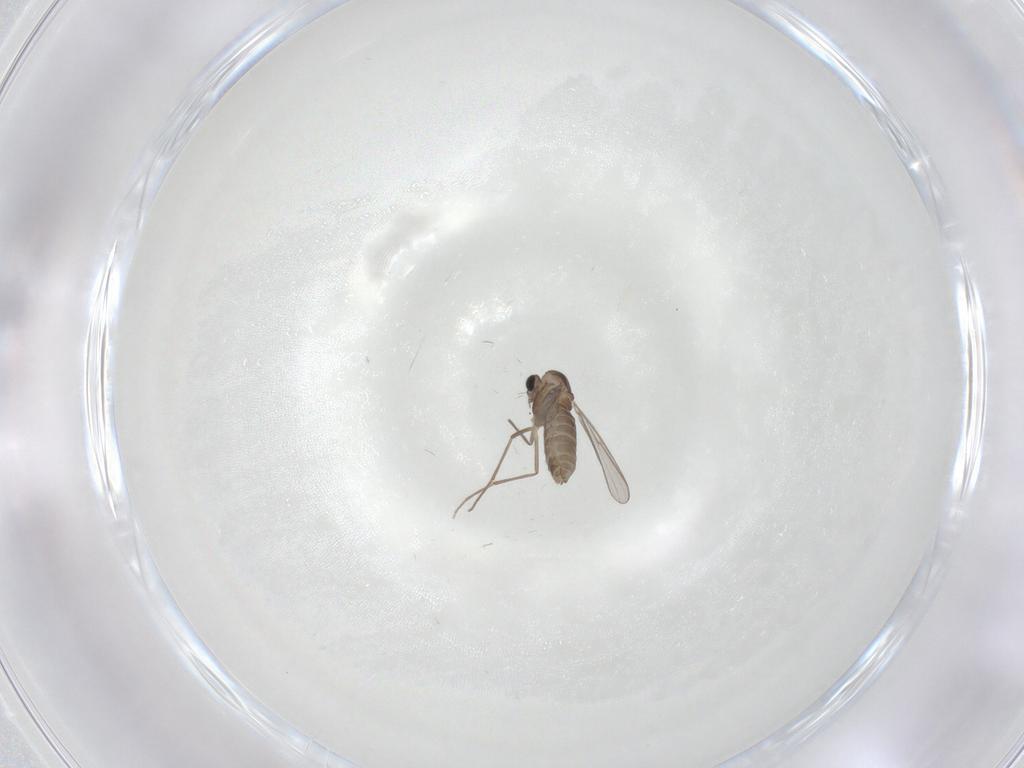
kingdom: Animalia
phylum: Arthropoda
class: Insecta
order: Diptera
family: Chironomidae
